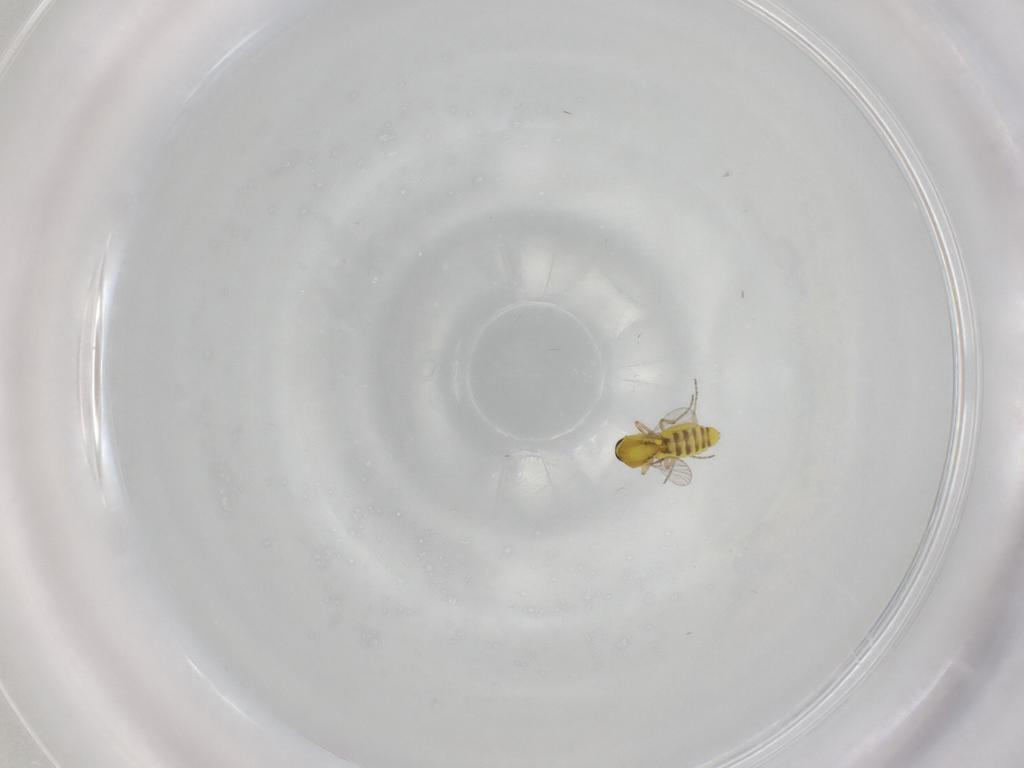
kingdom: Animalia
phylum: Arthropoda
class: Insecta
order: Diptera
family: Ceratopogonidae
